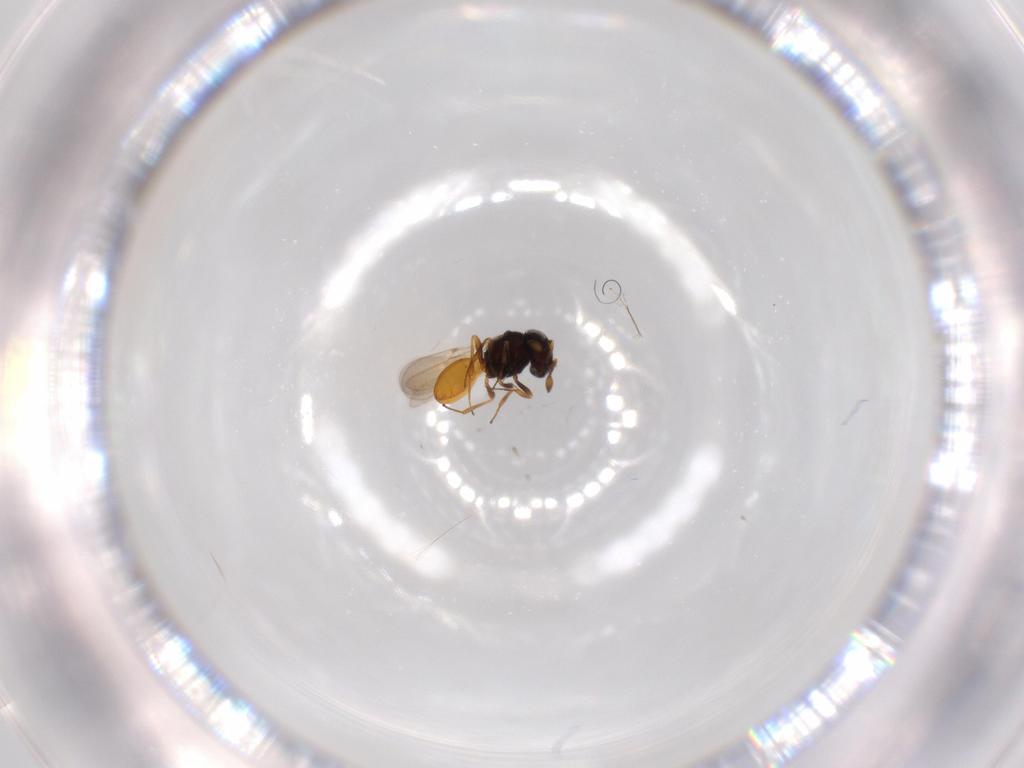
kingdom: Animalia
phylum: Arthropoda
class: Insecta
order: Hymenoptera
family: Scelionidae
